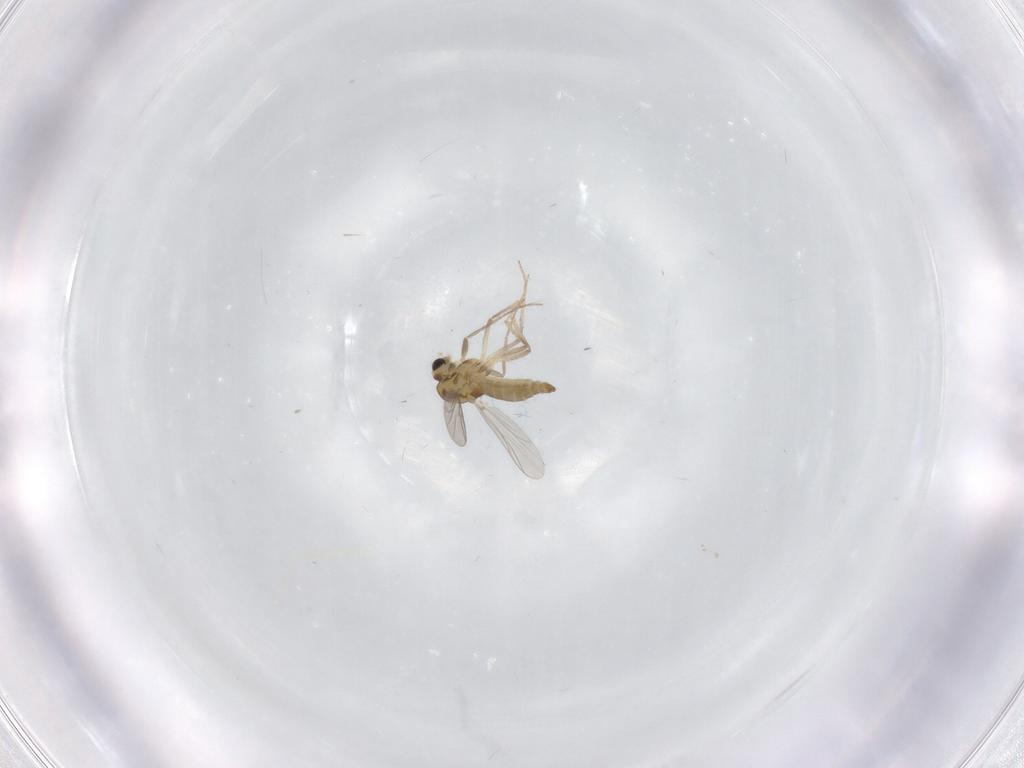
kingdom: Animalia
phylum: Arthropoda
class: Insecta
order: Diptera
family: Chironomidae
